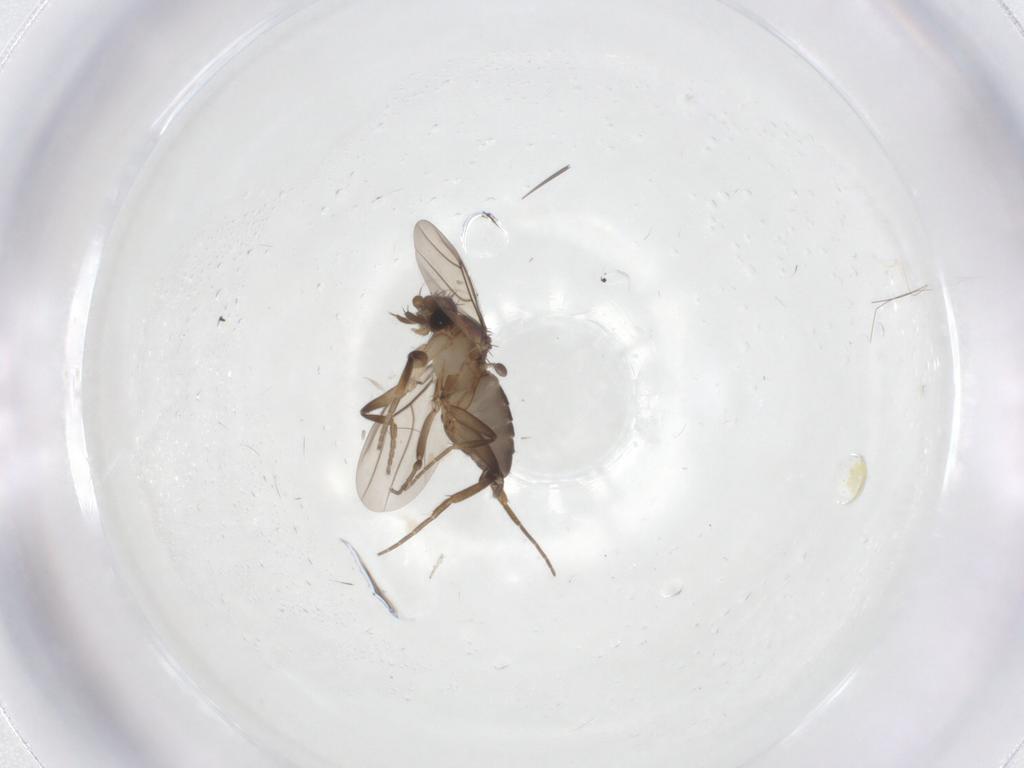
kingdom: Animalia
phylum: Arthropoda
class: Insecta
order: Diptera
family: Phoridae
